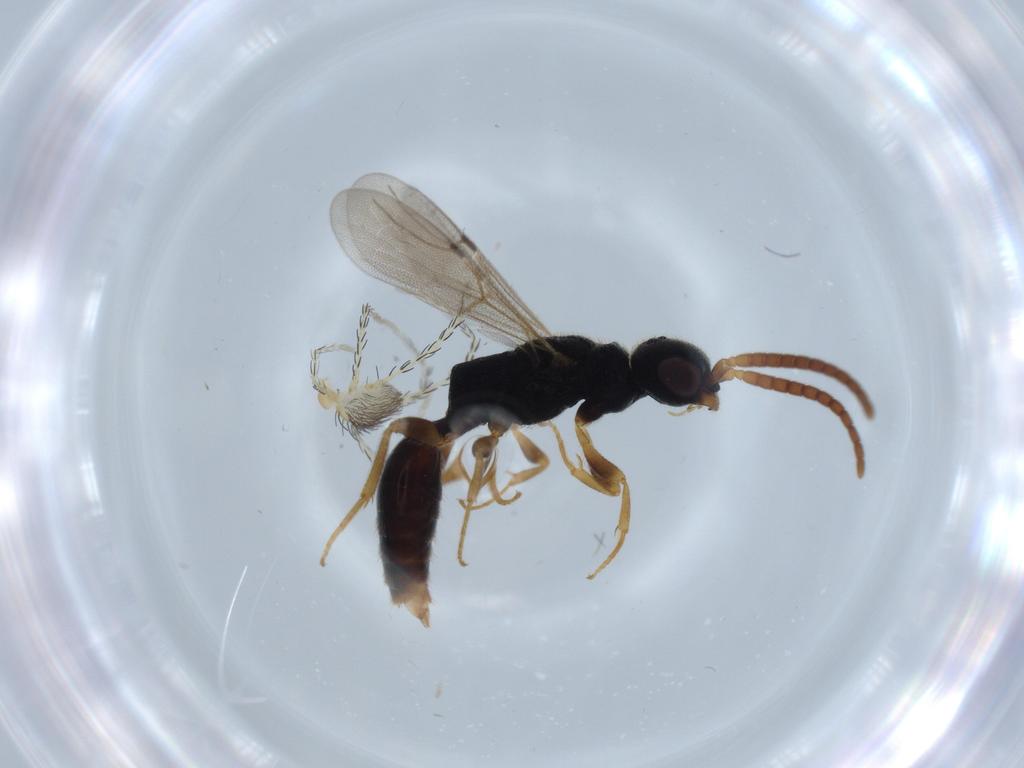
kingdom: Animalia
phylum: Arthropoda
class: Arachnida
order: Trombidiformes
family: Erythraeidae
